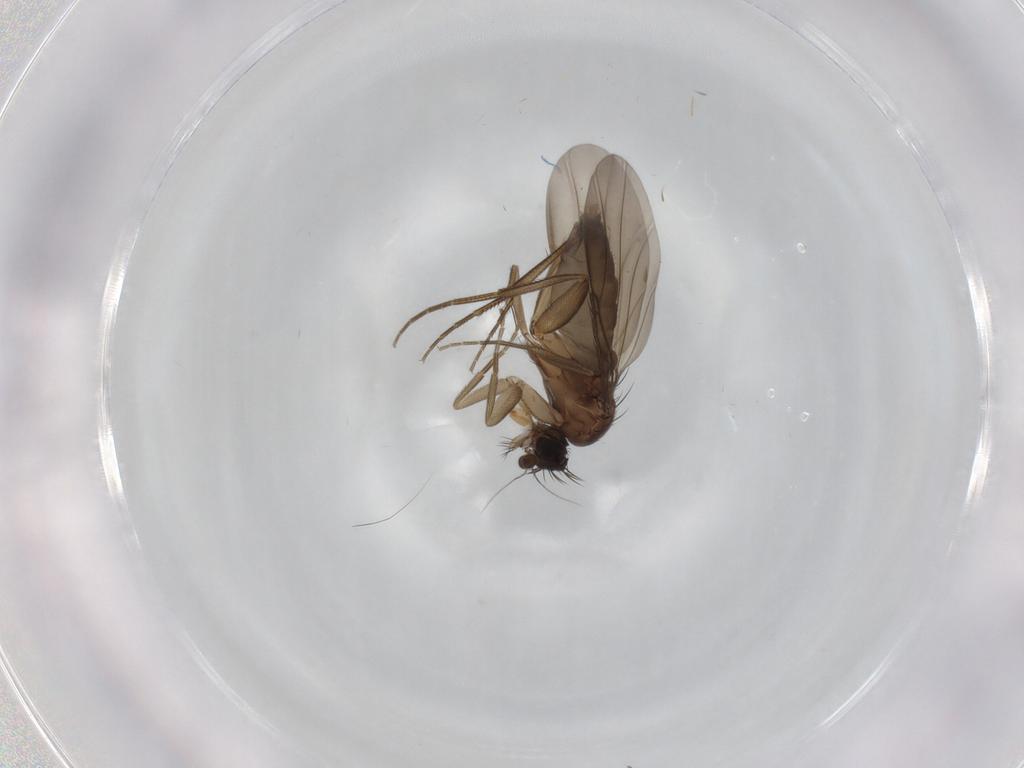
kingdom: Animalia
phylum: Arthropoda
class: Insecta
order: Diptera
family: Phoridae
